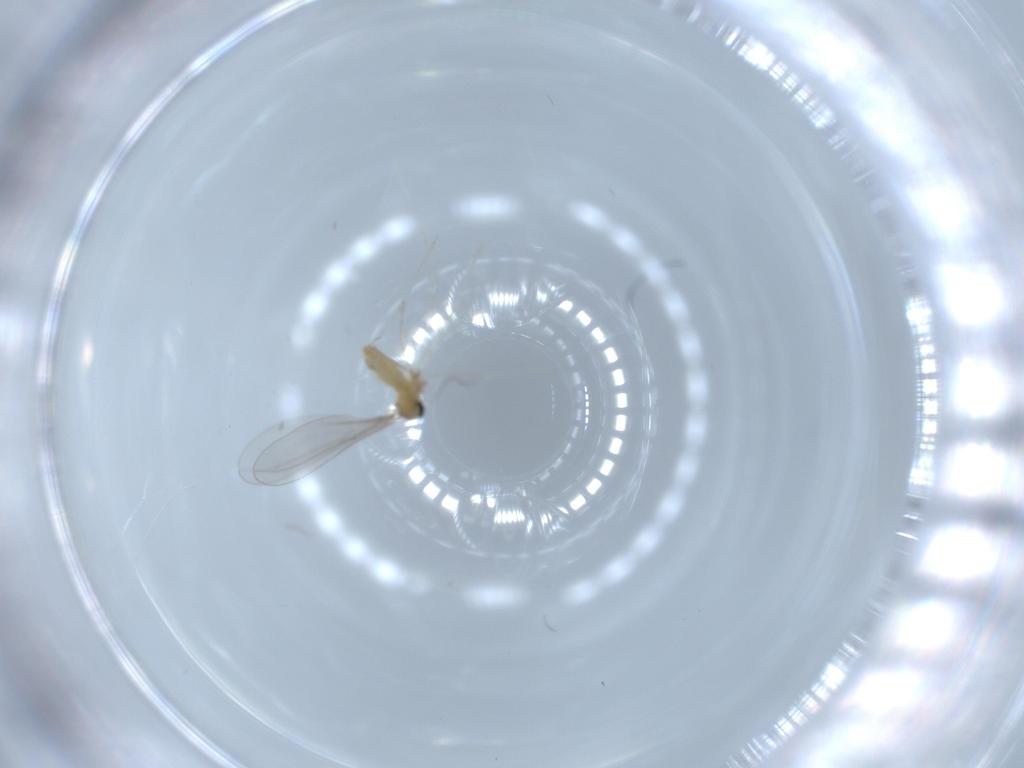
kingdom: Animalia
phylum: Arthropoda
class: Insecta
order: Diptera
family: Cecidomyiidae
